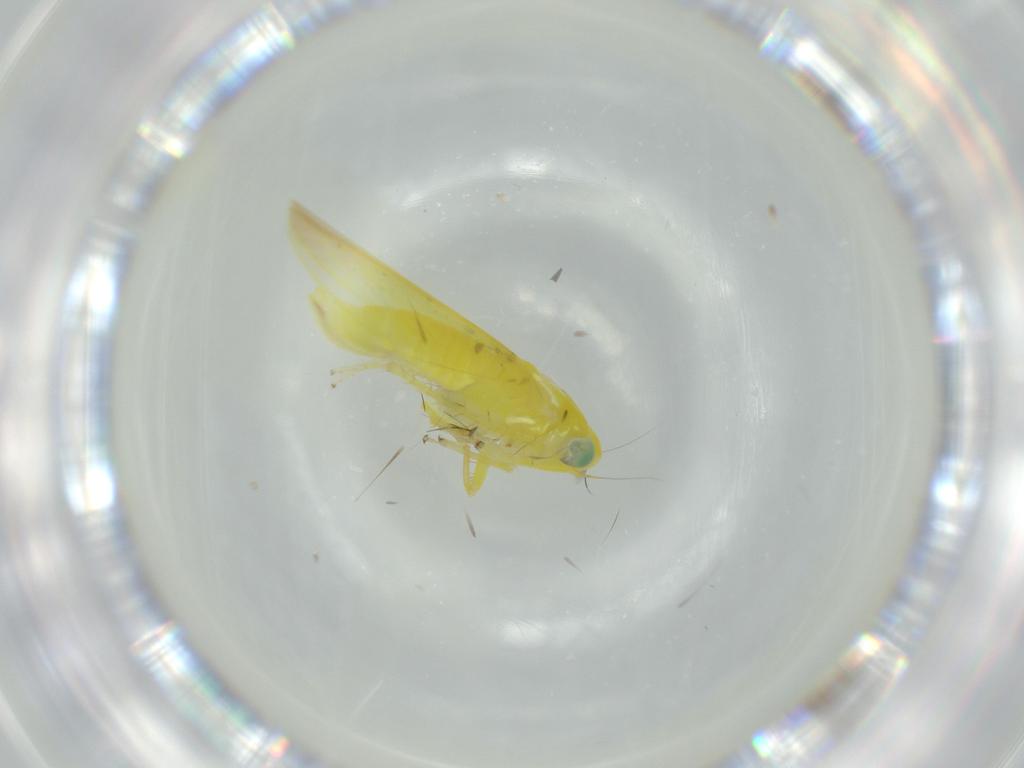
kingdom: Animalia
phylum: Arthropoda
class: Insecta
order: Hemiptera
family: Cicadellidae
